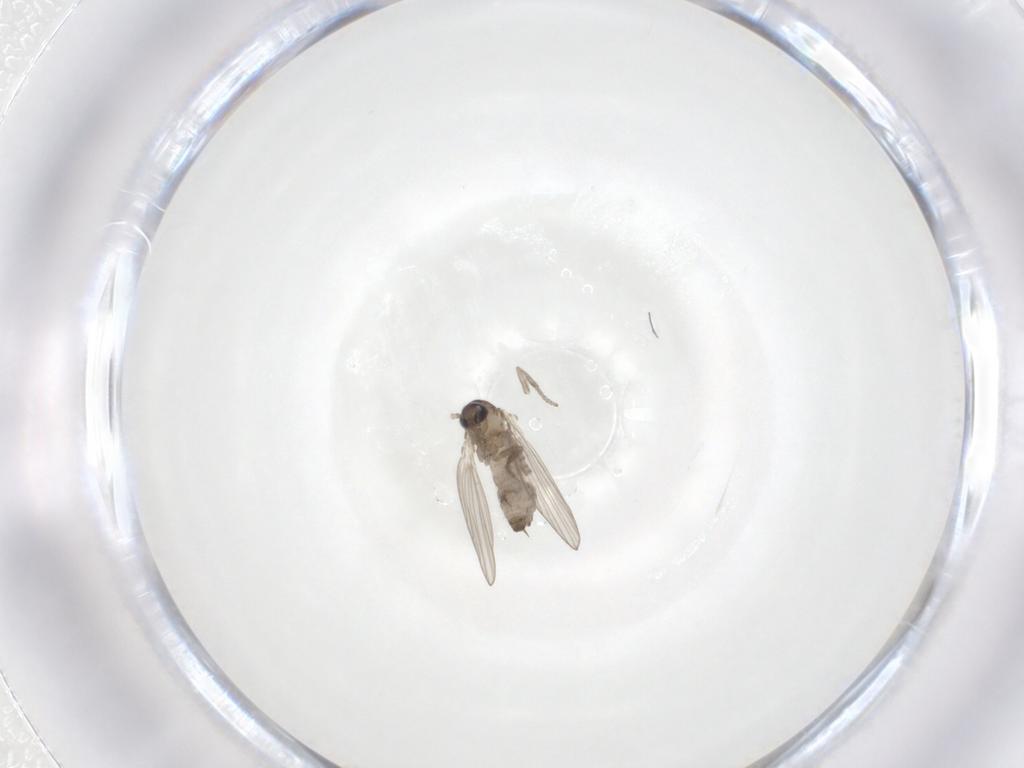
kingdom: Animalia
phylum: Arthropoda
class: Insecta
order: Diptera
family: Psychodidae
